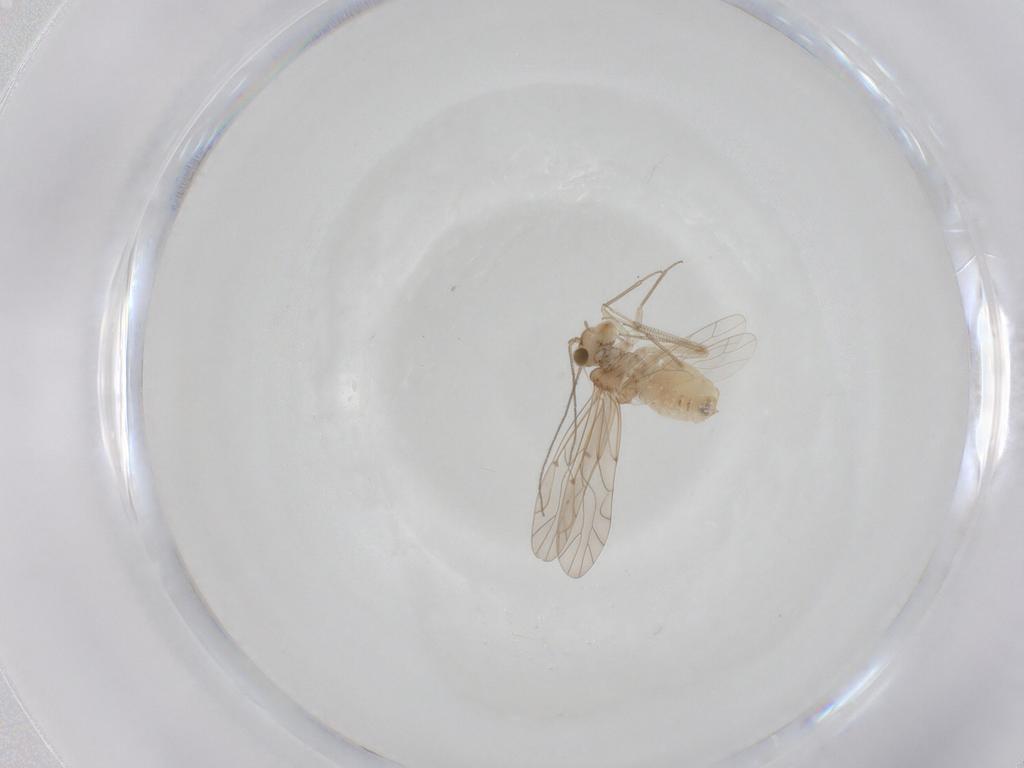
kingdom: Animalia
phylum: Arthropoda
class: Insecta
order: Psocodea
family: Lachesillidae
